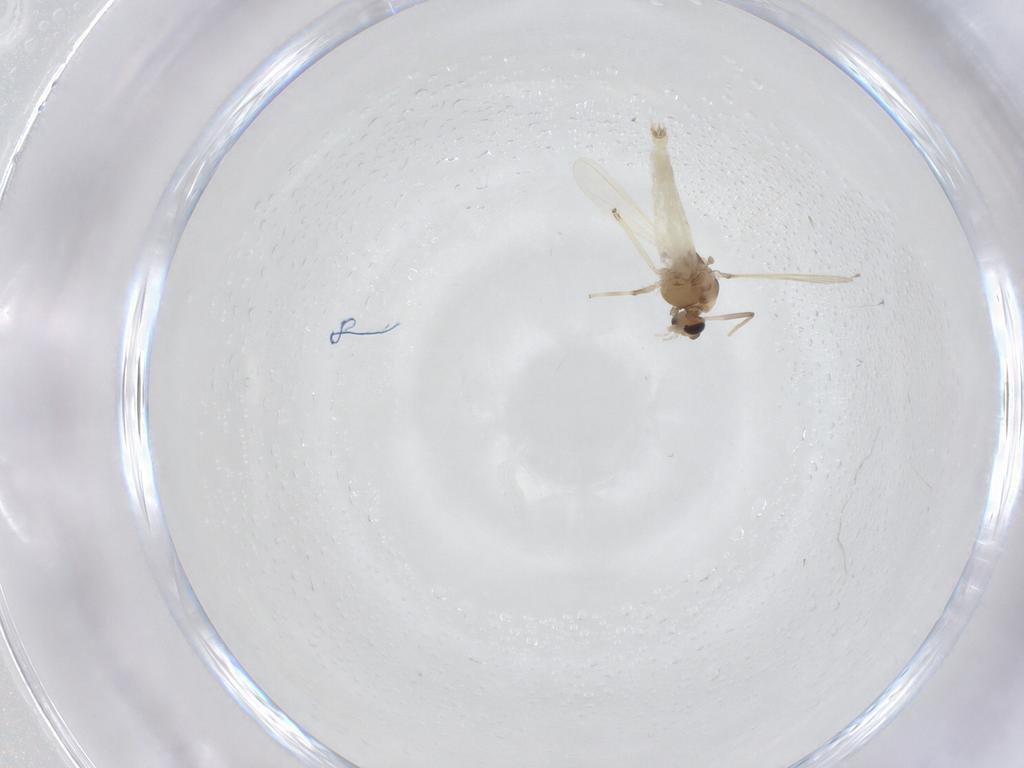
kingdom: Animalia
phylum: Arthropoda
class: Insecta
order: Diptera
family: Chironomidae
